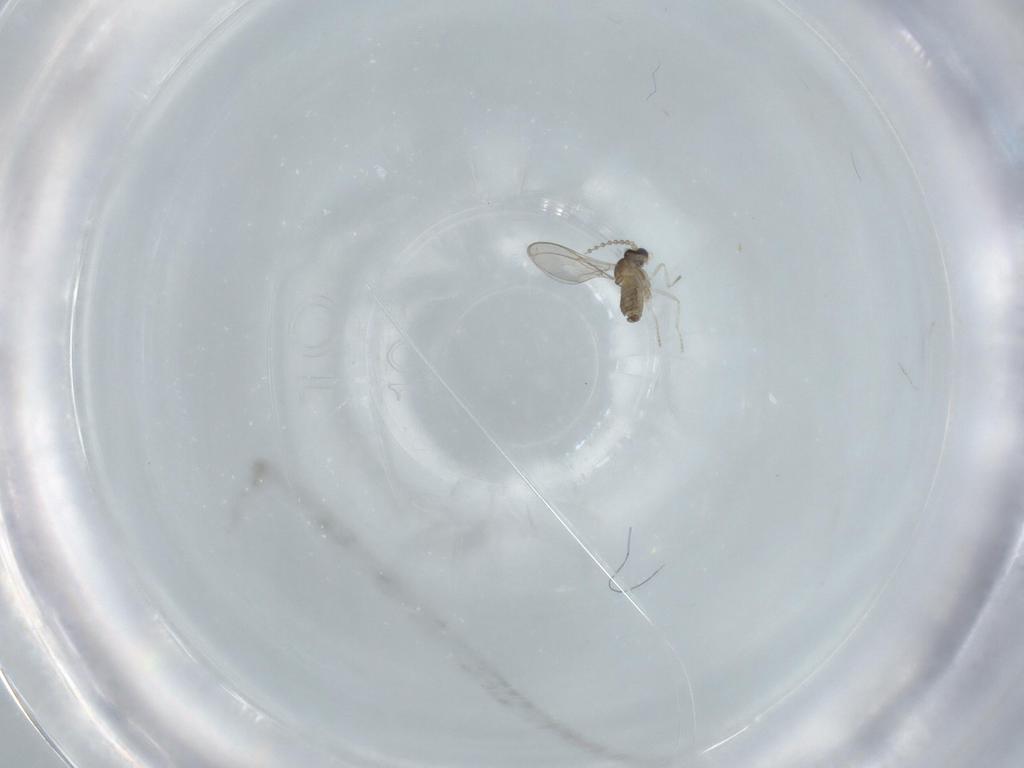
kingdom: Animalia
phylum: Arthropoda
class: Insecta
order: Diptera
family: Cecidomyiidae
